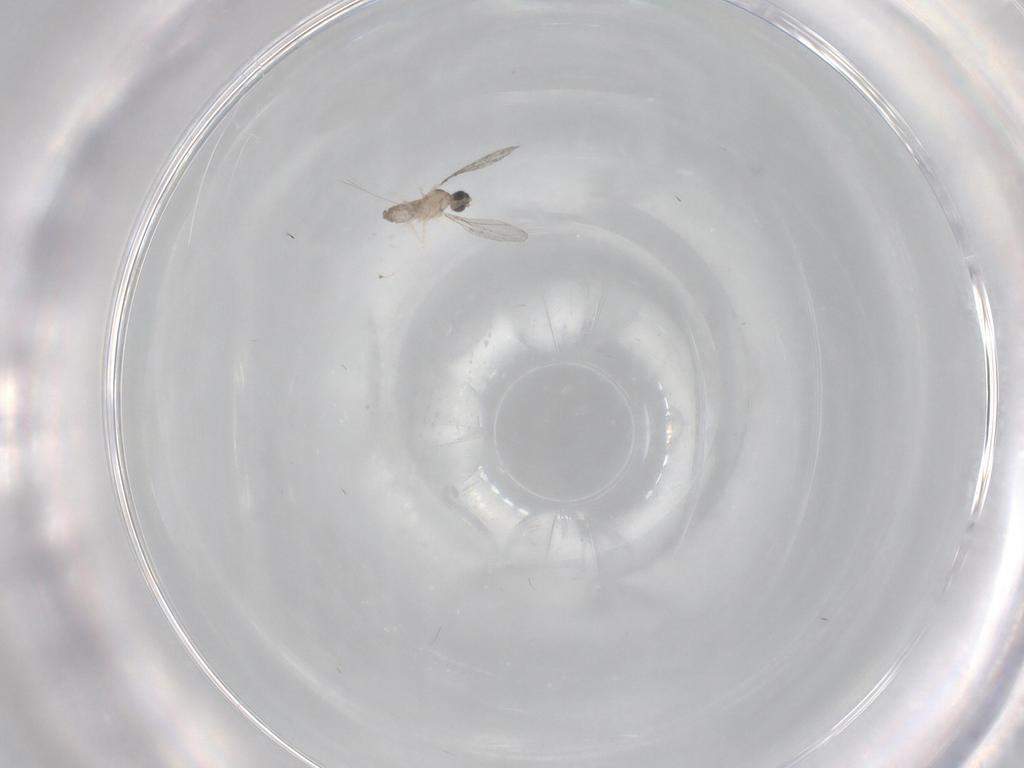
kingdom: Animalia
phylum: Arthropoda
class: Insecta
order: Diptera
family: Cecidomyiidae
